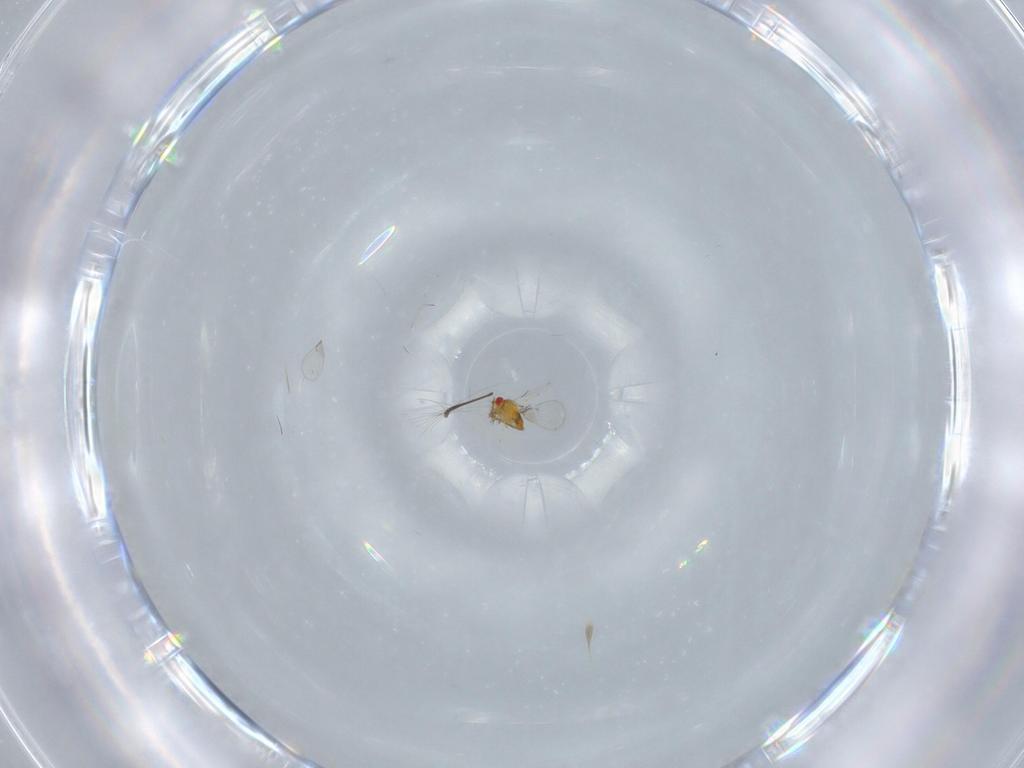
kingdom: Animalia
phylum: Arthropoda
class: Insecta
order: Hymenoptera
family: Trichogrammatidae
